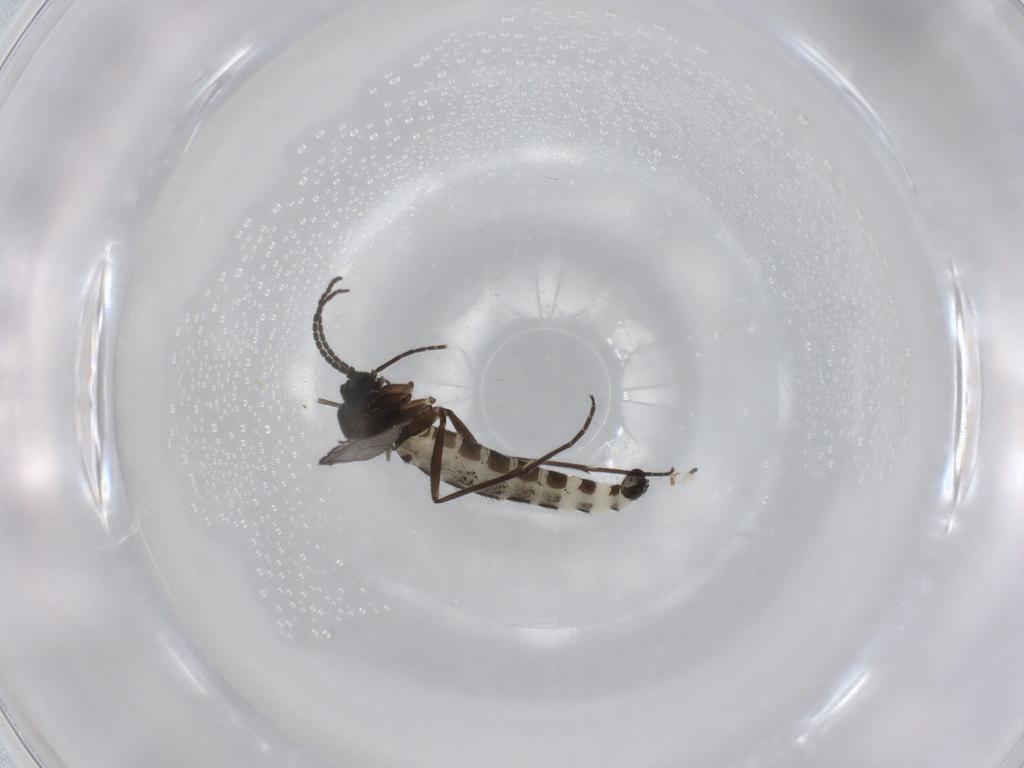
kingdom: Animalia
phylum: Arthropoda
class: Insecta
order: Diptera
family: Sciaridae
